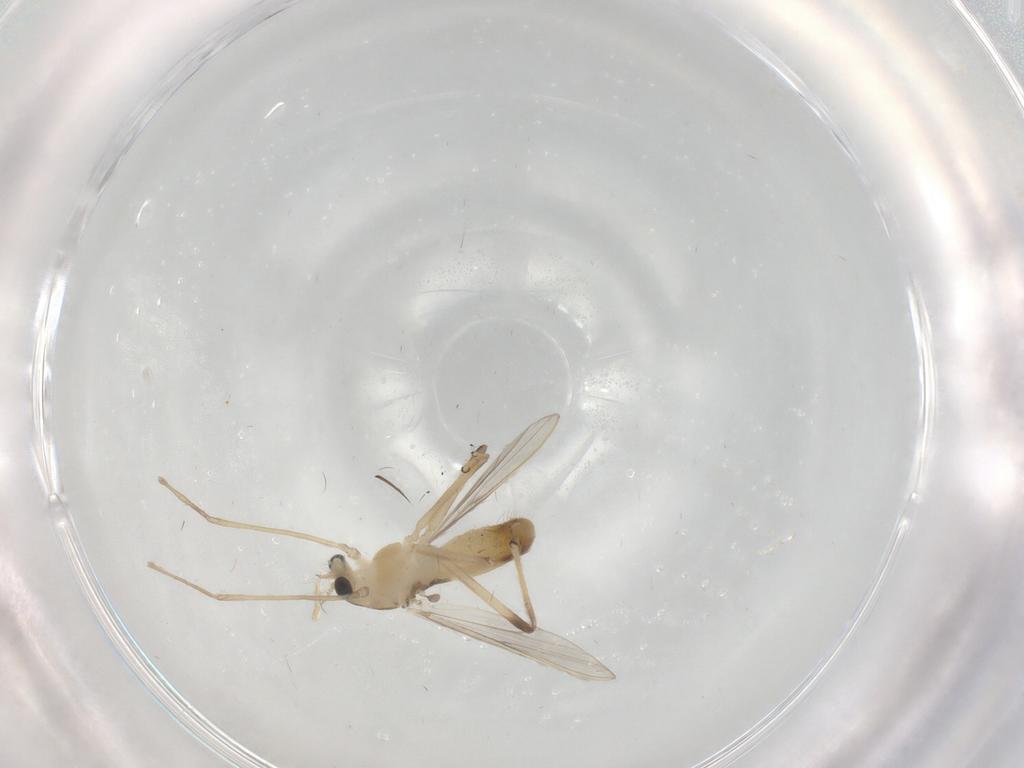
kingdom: Animalia
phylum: Arthropoda
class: Insecta
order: Diptera
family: Chironomidae
